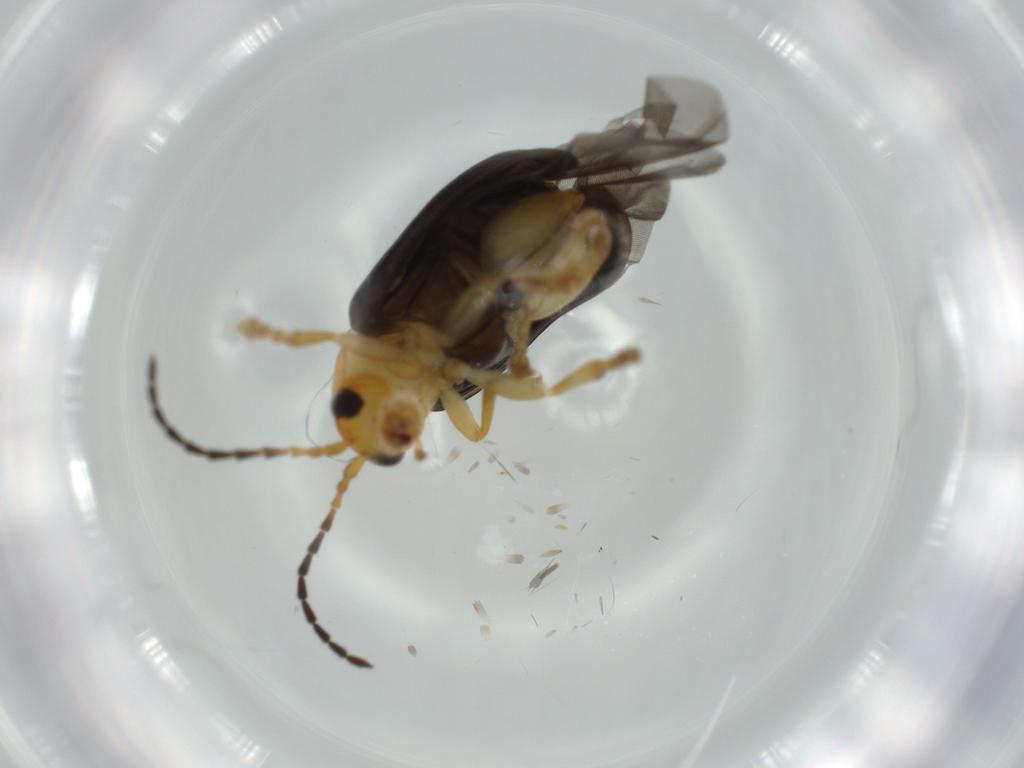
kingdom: Animalia
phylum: Arthropoda
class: Insecta
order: Coleoptera
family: Chrysomelidae
